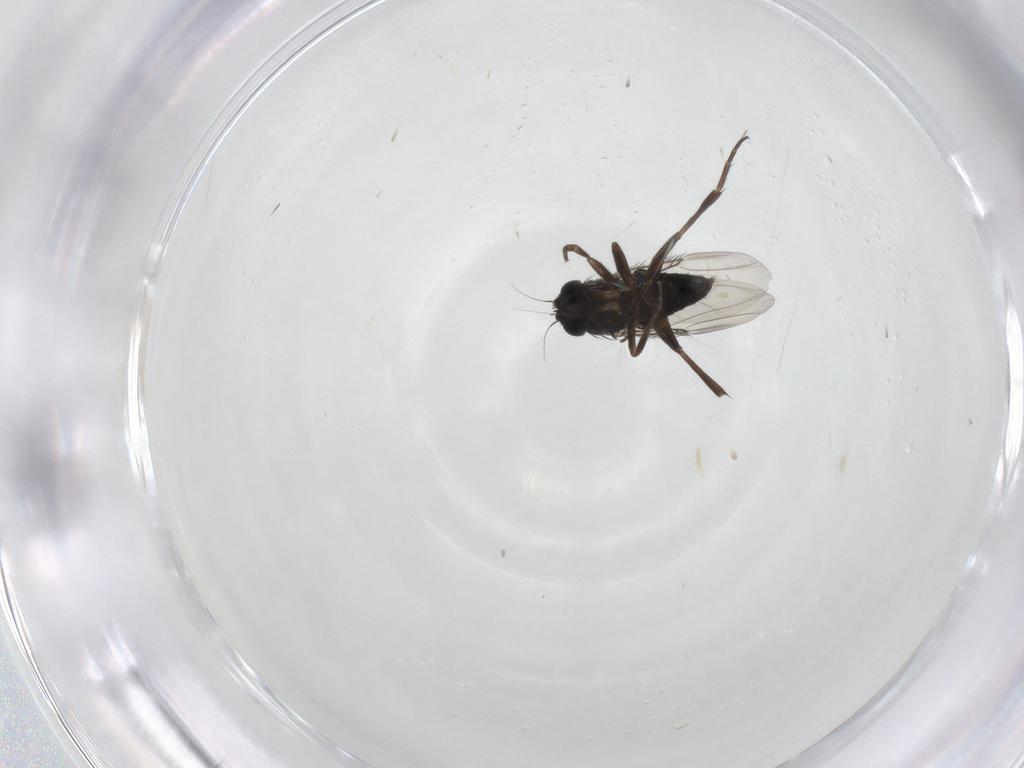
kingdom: Animalia
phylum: Arthropoda
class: Insecta
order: Diptera
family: Phoridae
